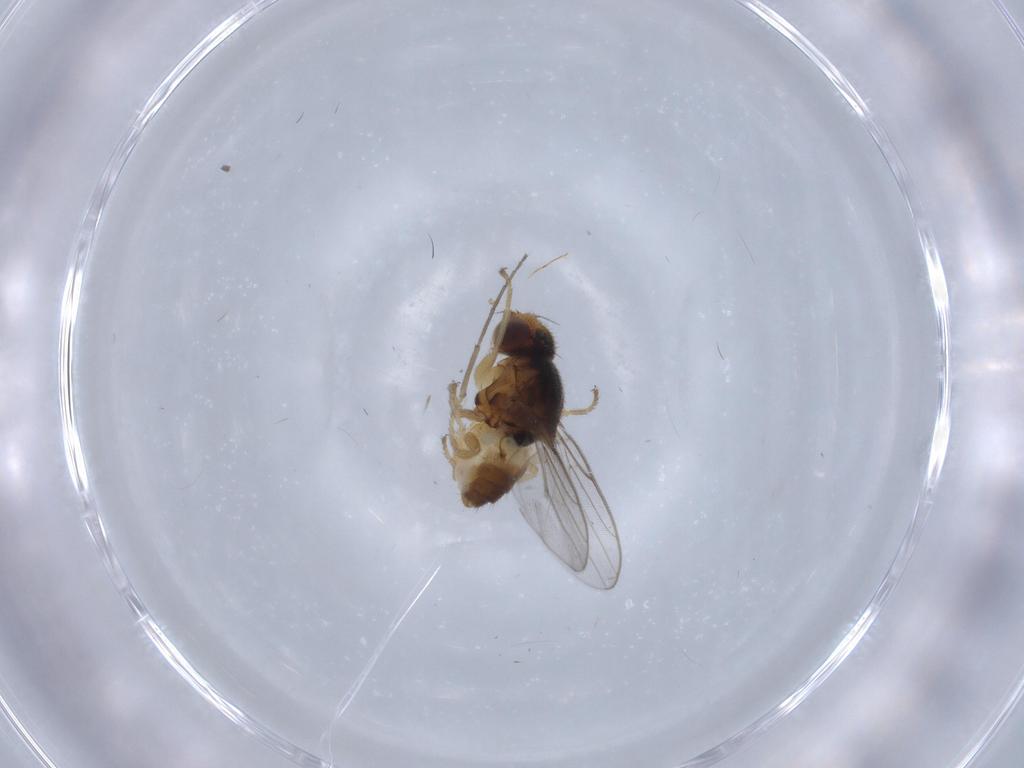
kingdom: Animalia
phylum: Arthropoda
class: Insecta
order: Diptera
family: Chloropidae
